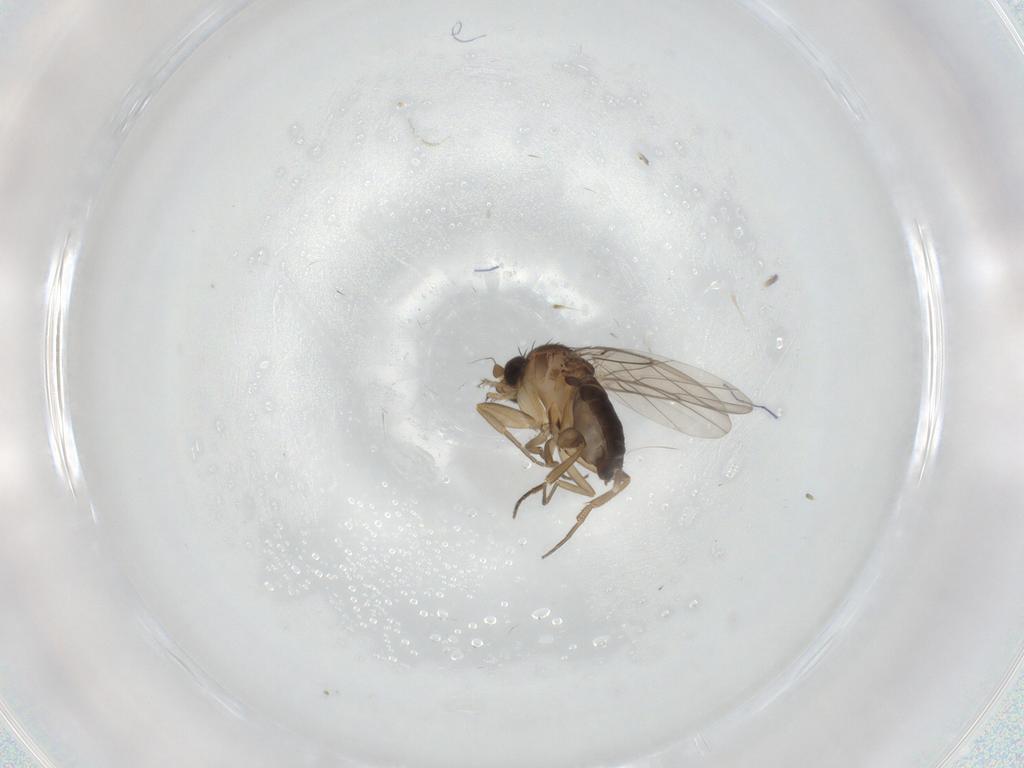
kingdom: Animalia
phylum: Arthropoda
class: Insecta
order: Diptera
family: Phoridae
